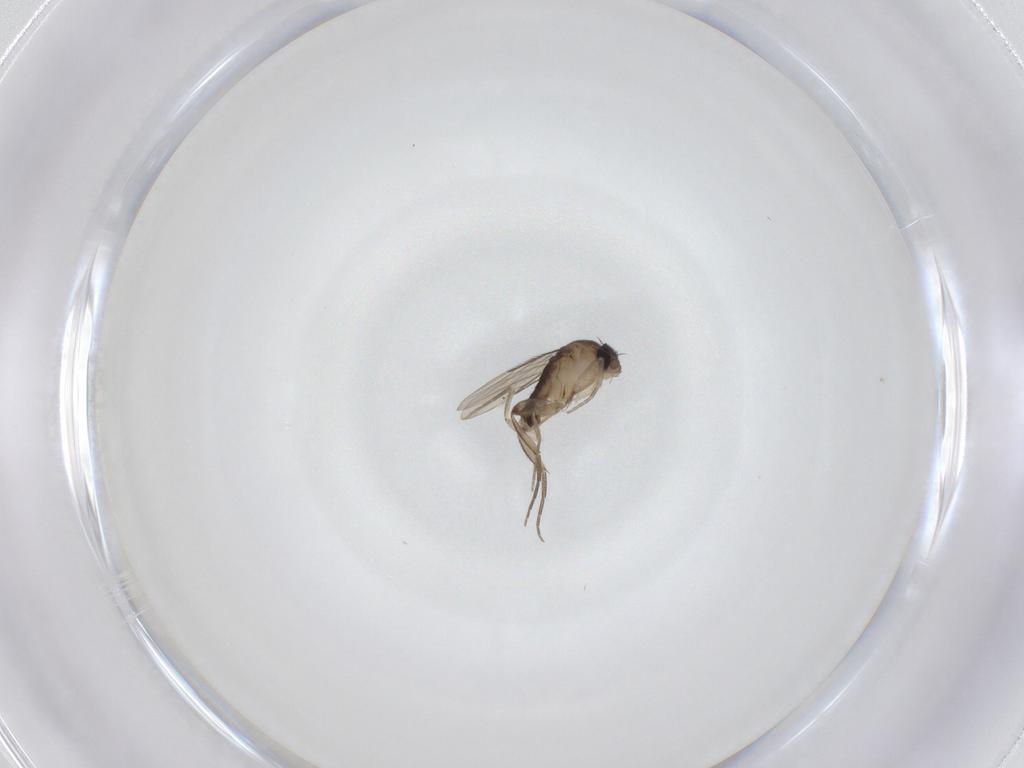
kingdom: Animalia
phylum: Arthropoda
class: Insecta
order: Diptera
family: Phoridae
